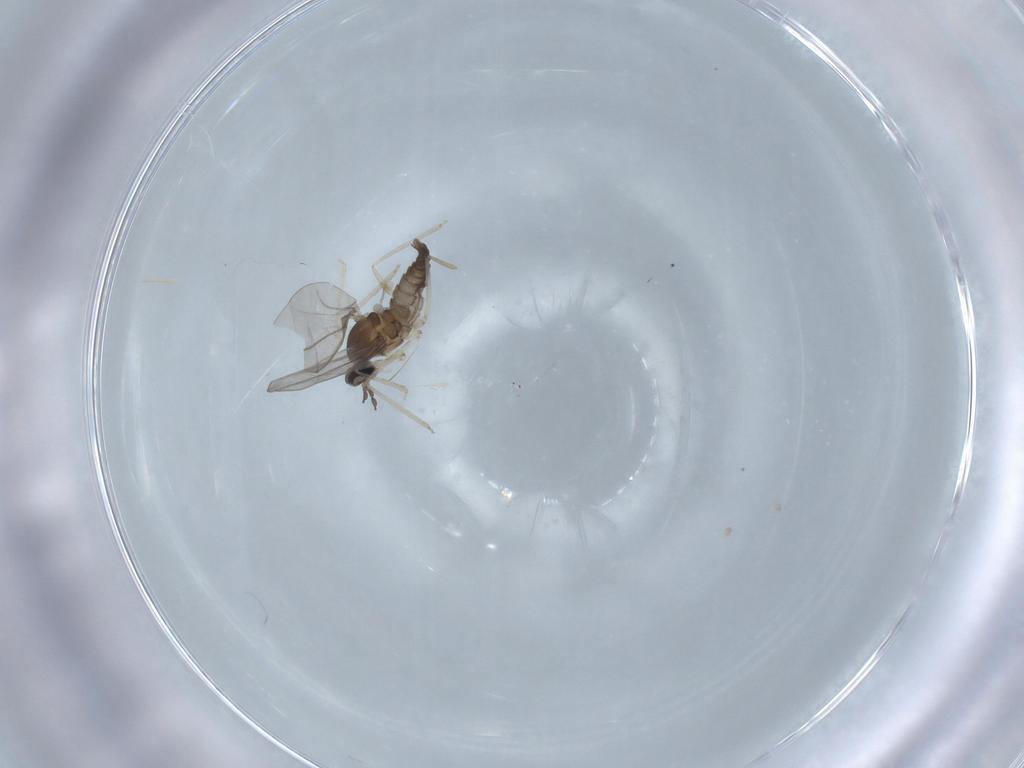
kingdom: Animalia
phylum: Arthropoda
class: Insecta
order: Diptera
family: Cecidomyiidae
